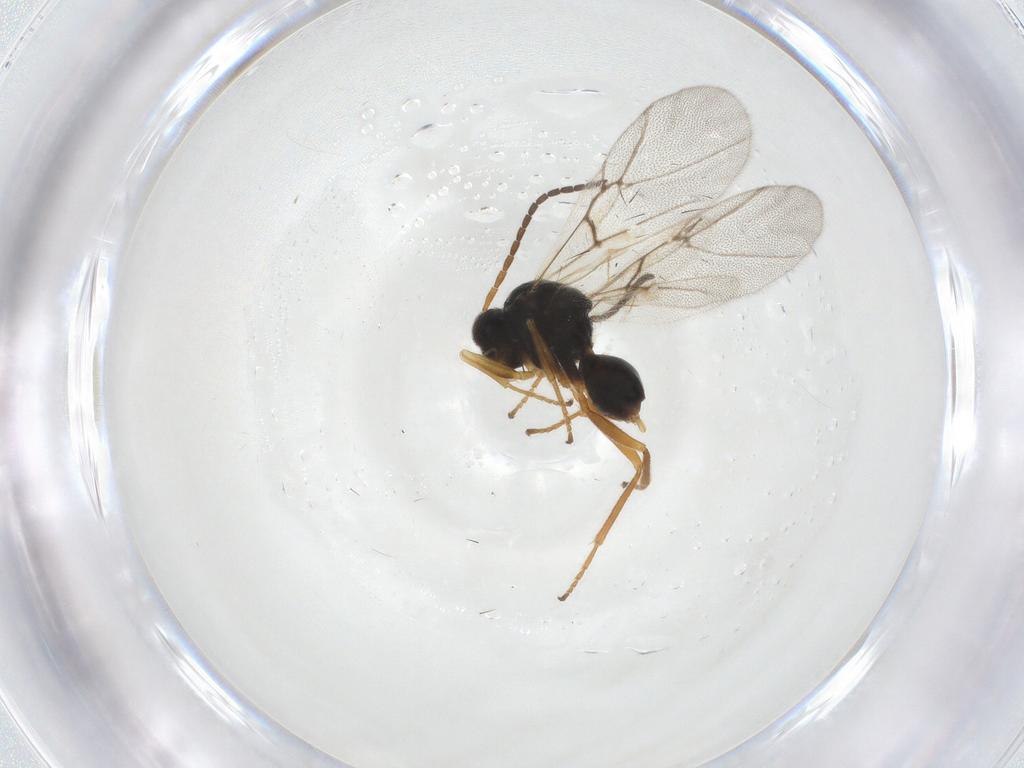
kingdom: Animalia
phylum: Arthropoda
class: Insecta
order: Hymenoptera
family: Cynipidae
